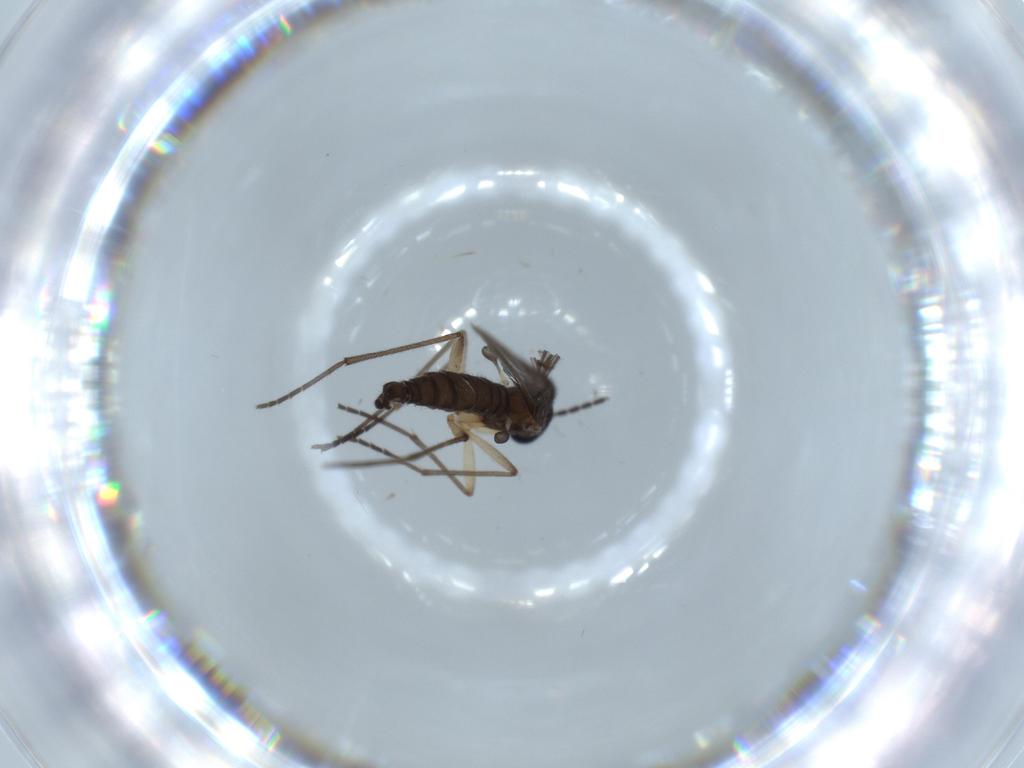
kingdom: Animalia
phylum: Arthropoda
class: Insecta
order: Diptera
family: Sciaridae
